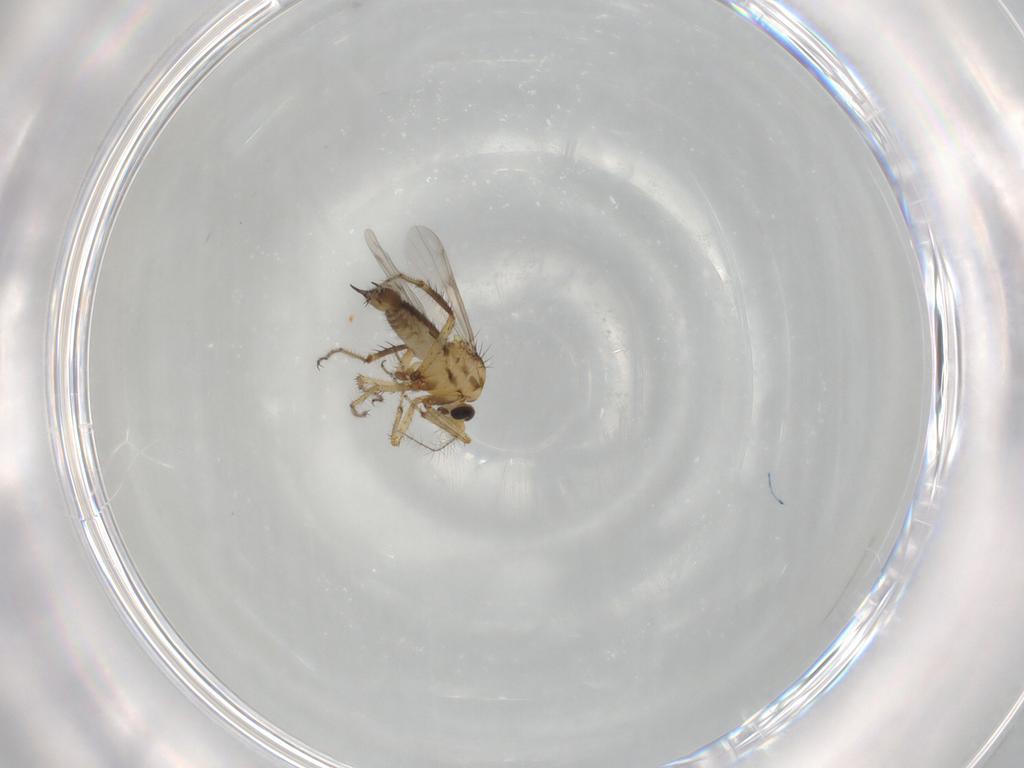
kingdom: Animalia
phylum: Arthropoda
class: Insecta
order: Diptera
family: Ceratopogonidae
